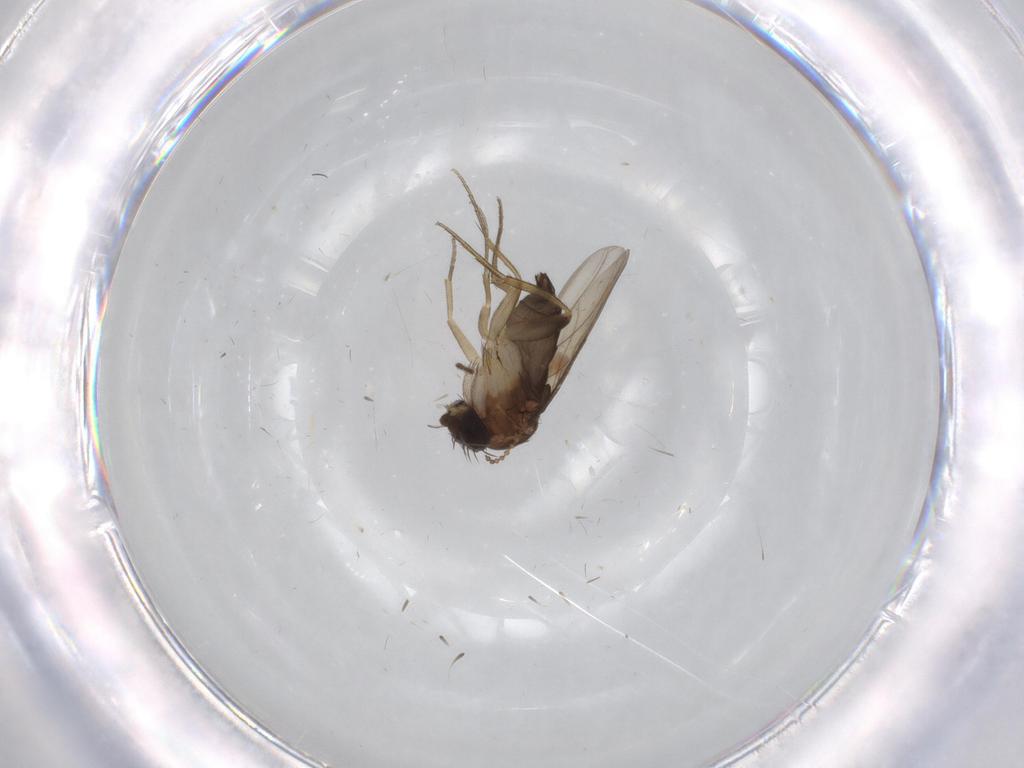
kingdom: Animalia
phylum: Arthropoda
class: Insecta
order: Diptera
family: Phoridae
